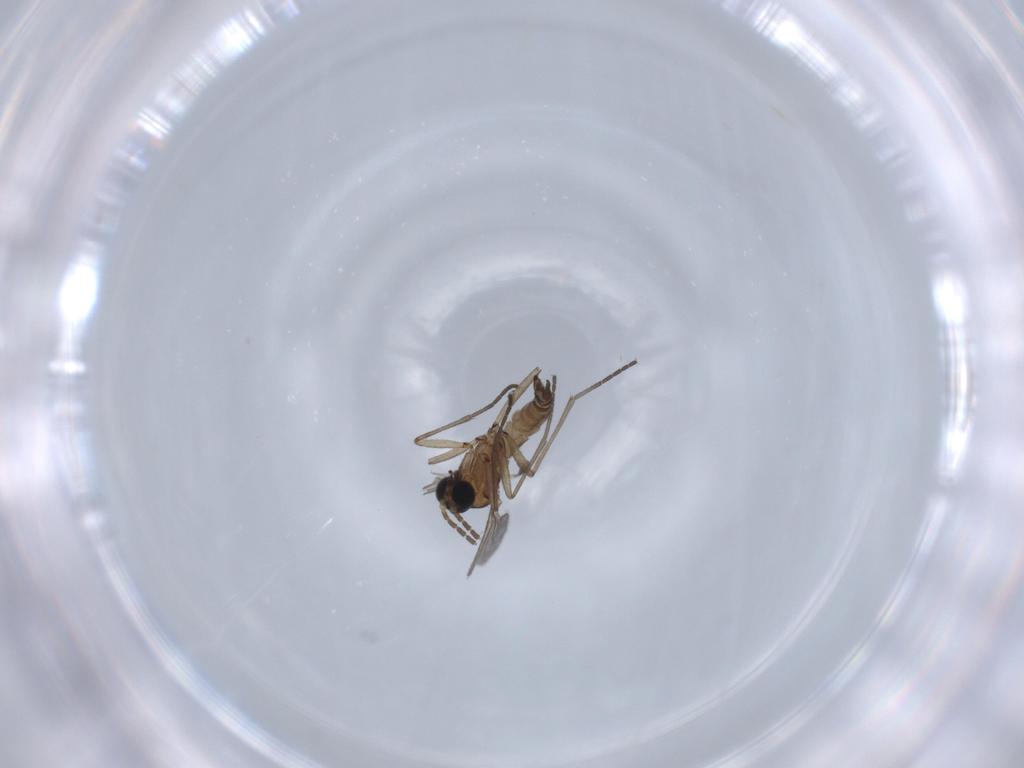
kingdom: Animalia
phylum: Arthropoda
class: Insecta
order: Diptera
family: Sciaridae
